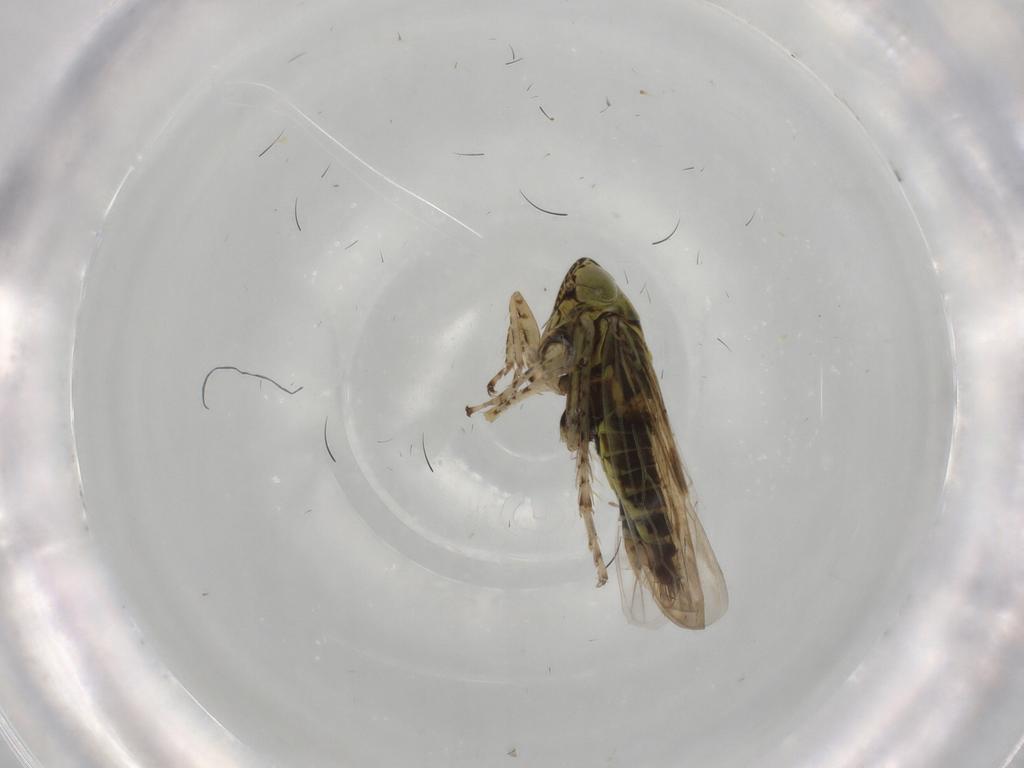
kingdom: Animalia
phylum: Arthropoda
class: Insecta
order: Hemiptera
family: Cicadellidae
